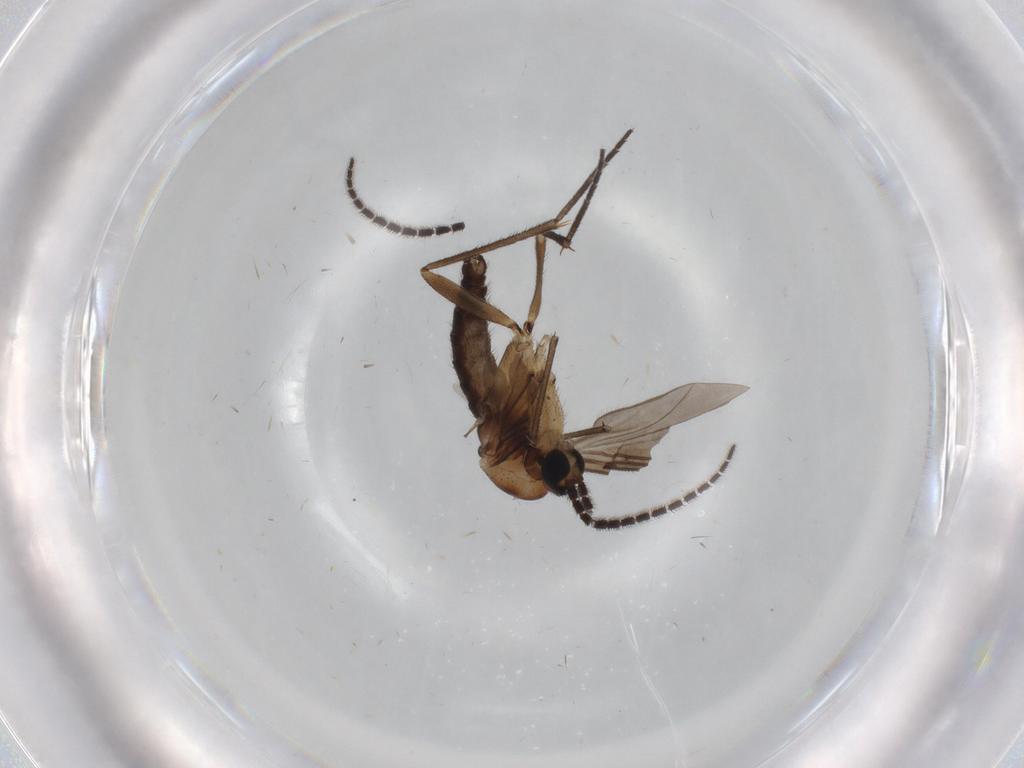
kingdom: Animalia
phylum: Arthropoda
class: Insecta
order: Diptera
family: Sciaridae
